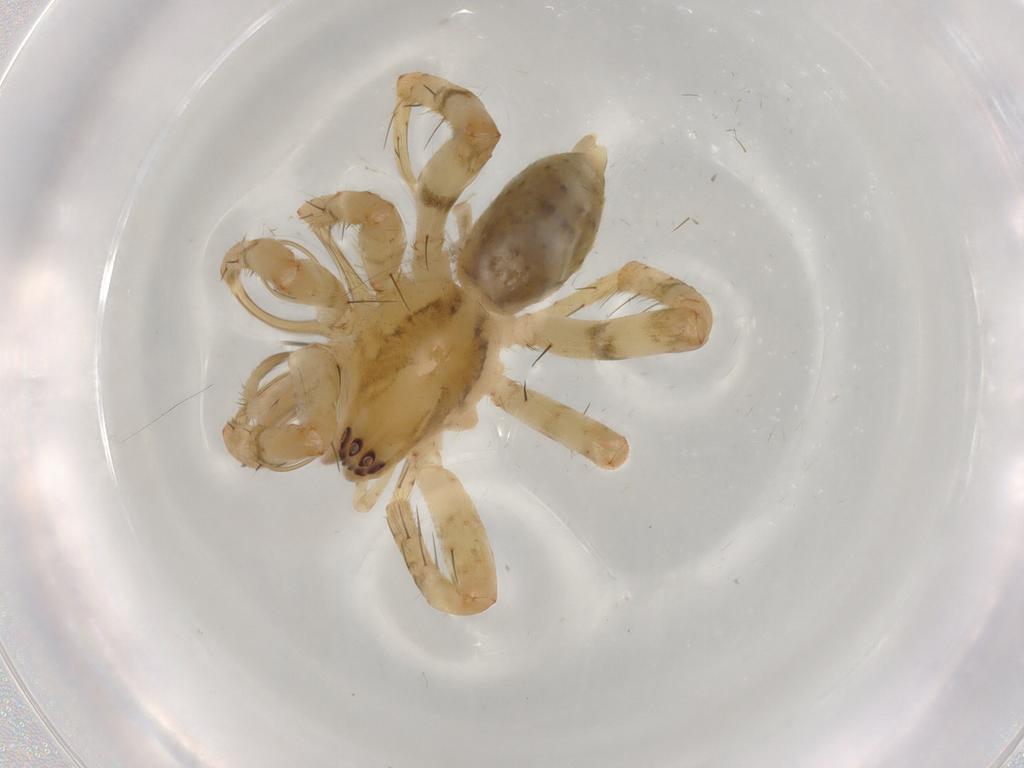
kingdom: Animalia
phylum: Arthropoda
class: Arachnida
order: Araneae
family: Anyphaenidae
